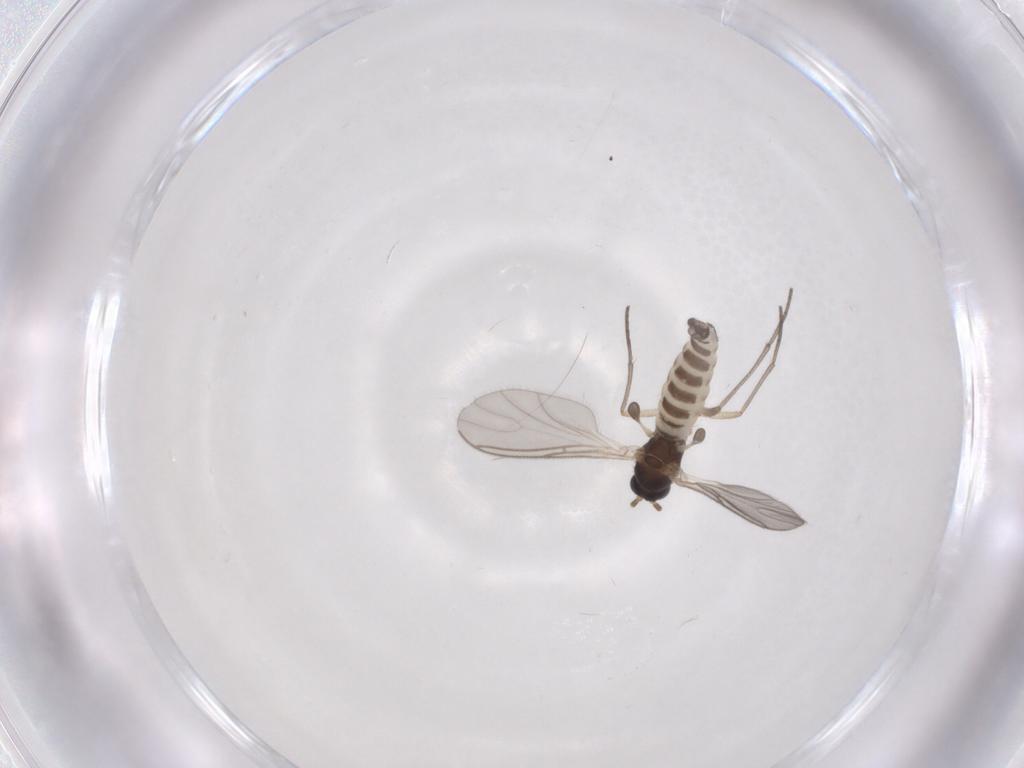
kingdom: Animalia
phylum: Arthropoda
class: Insecta
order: Diptera
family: Sciaridae
